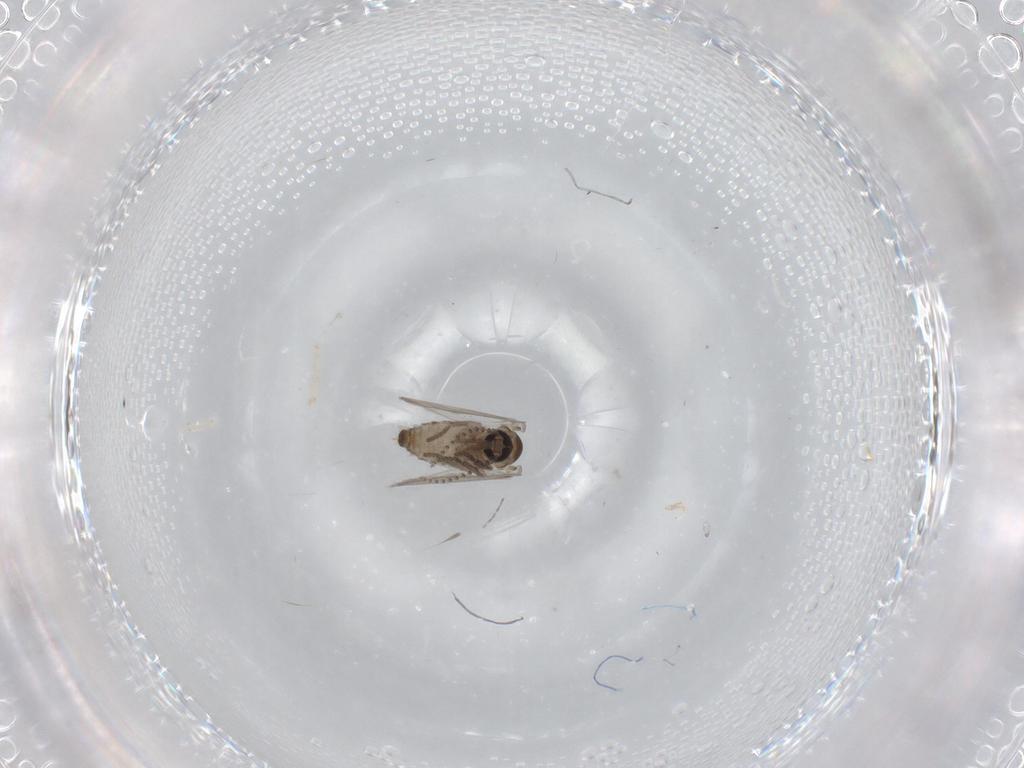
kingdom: Animalia
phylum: Arthropoda
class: Insecta
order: Diptera
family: Psychodidae
